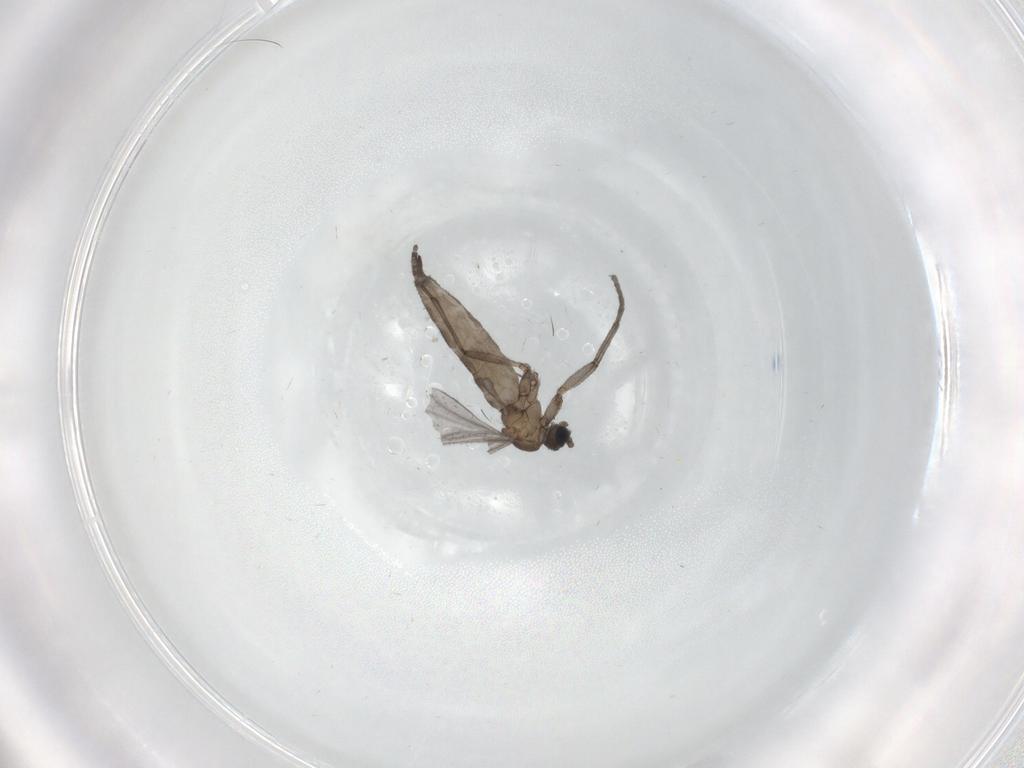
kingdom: Animalia
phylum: Arthropoda
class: Insecta
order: Diptera
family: Sciaridae
